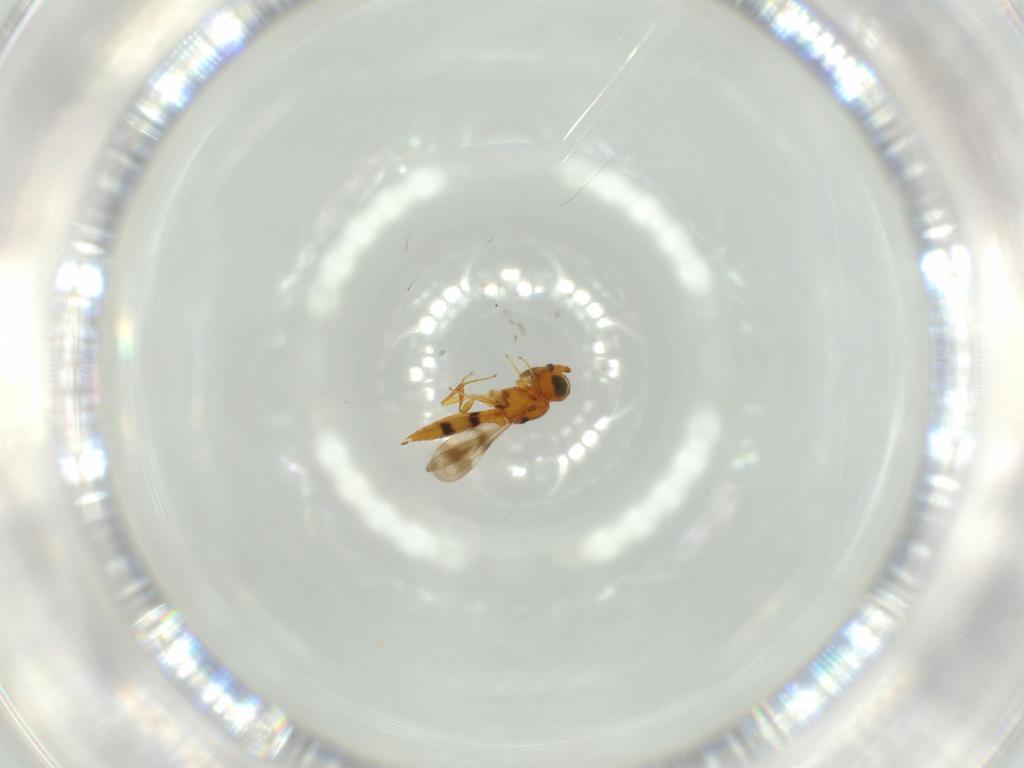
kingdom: Animalia
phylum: Arthropoda
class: Insecta
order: Hymenoptera
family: Scelionidae
